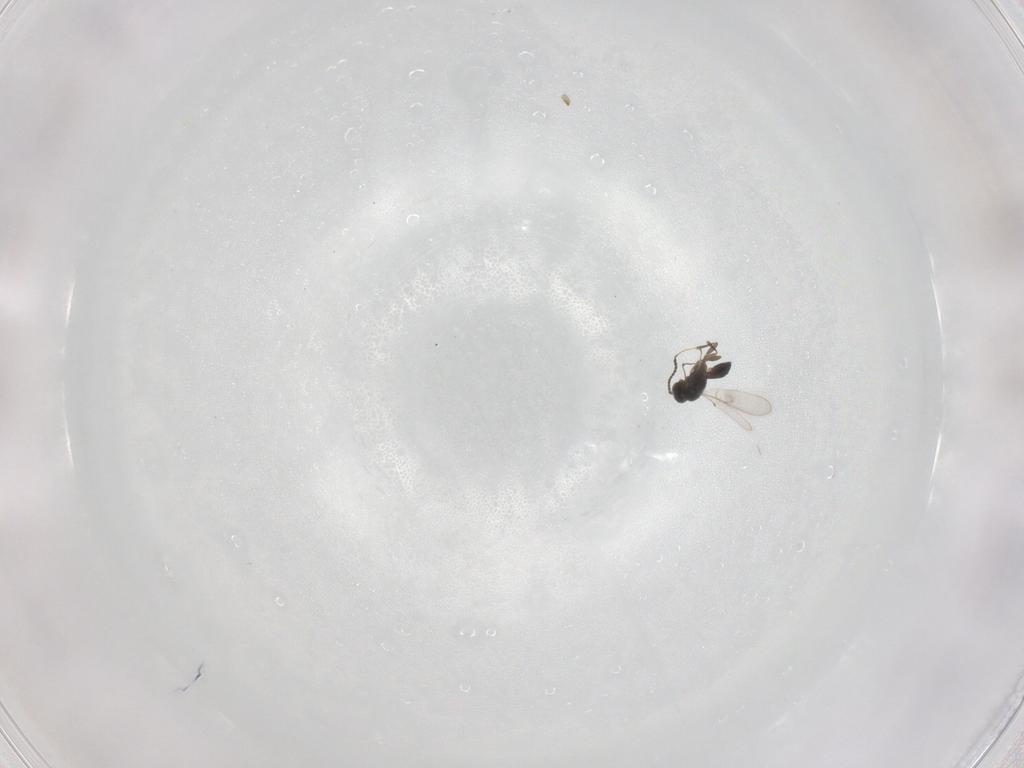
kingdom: Animalia
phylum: Arthropoda
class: Insecta
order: Hymenoptera
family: Scelionidae
